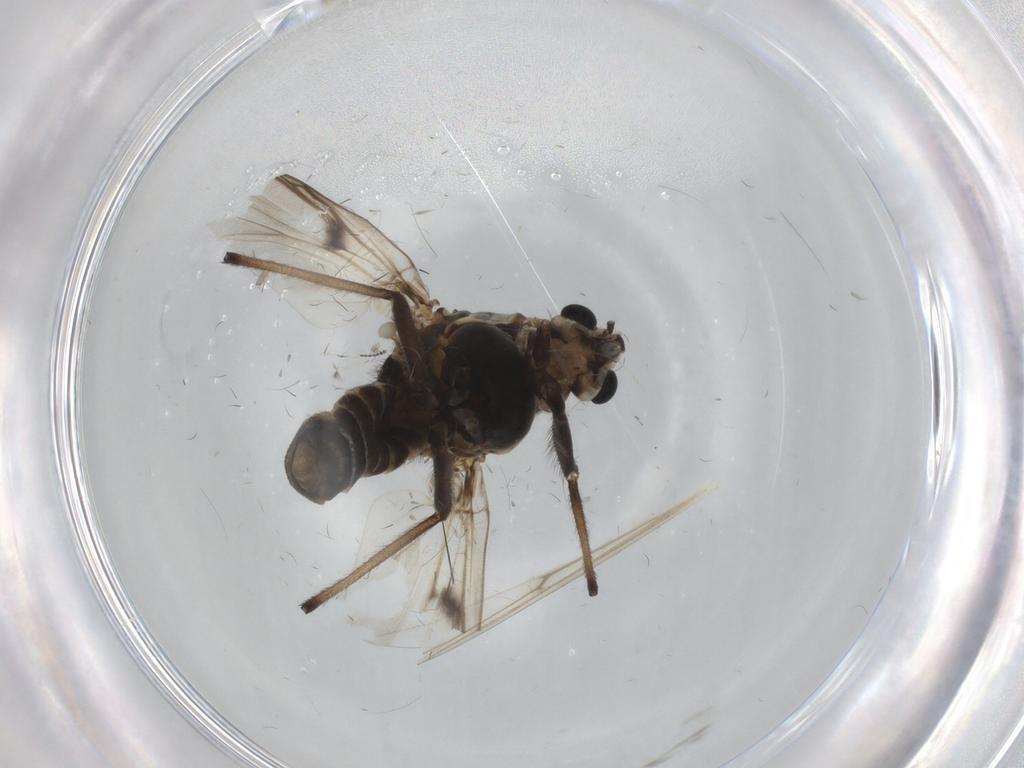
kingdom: Animalia
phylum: Arthropoda
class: Insecta
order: Diptera
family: Chironomidae
